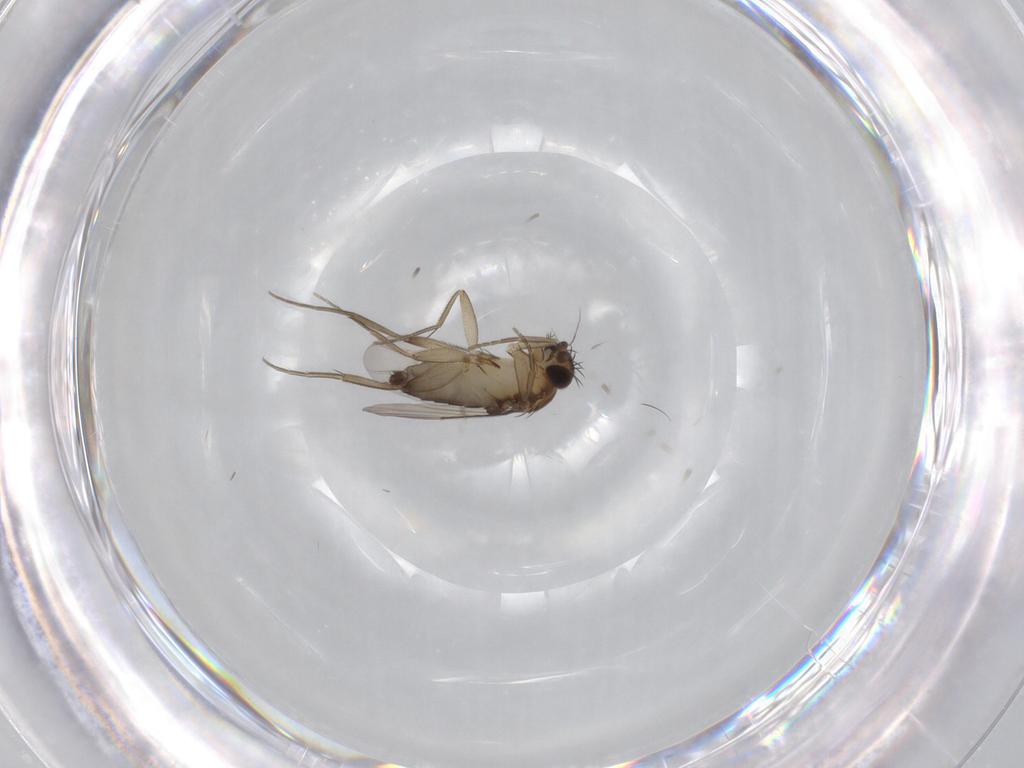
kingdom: Animalia
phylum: Arthropoda
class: Insecta
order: Diptera
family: Phoridae
